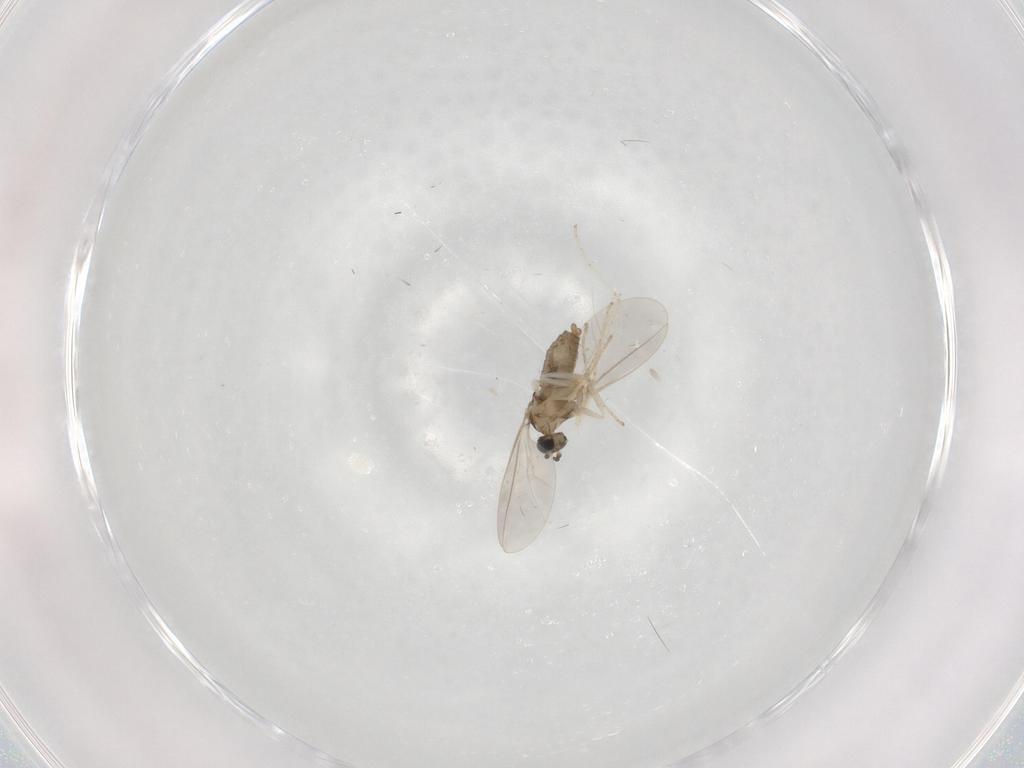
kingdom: Animalia
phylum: Arthropoda
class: Insecta
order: Diptera
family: Cecidomyiidae
